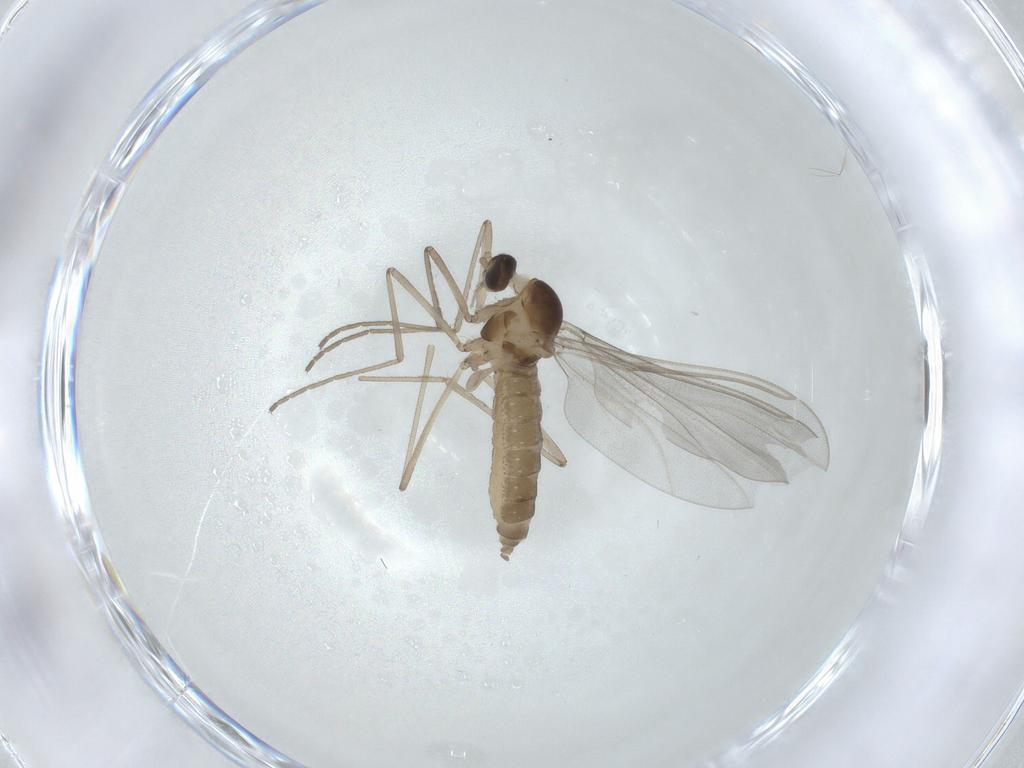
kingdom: Animalia
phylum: Arthropoda
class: Insecta
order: Diptera
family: Cecidomyiidae
